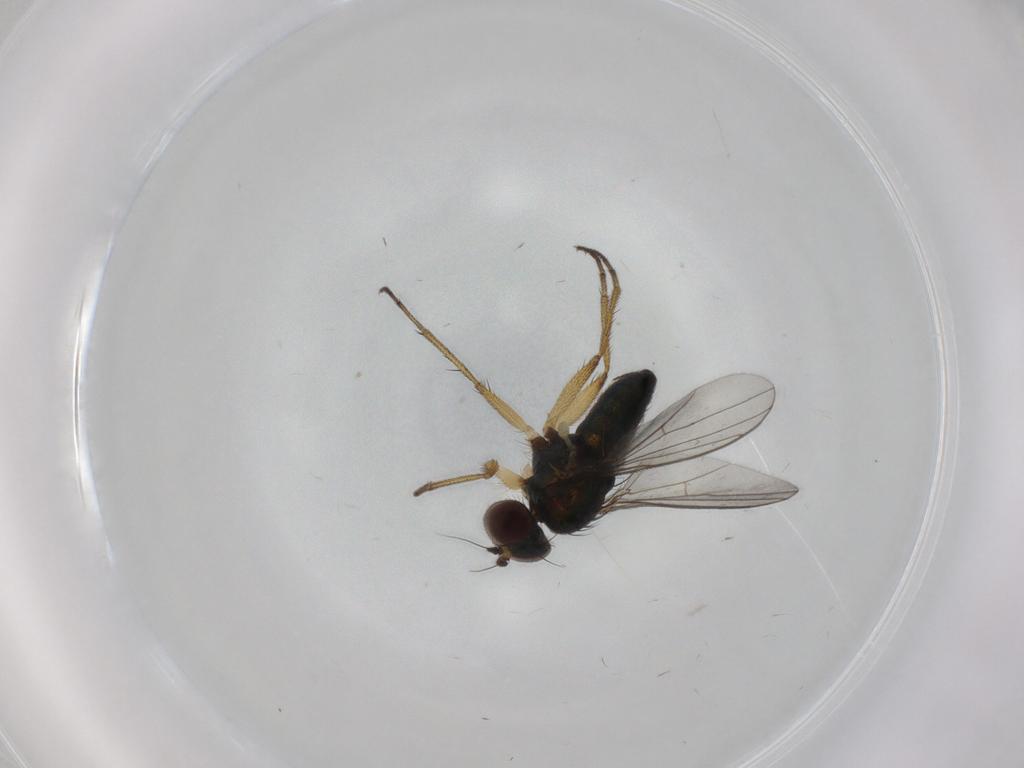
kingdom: Animalia
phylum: Arthropoda
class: Insecta
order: Diptera
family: Dolichopodidae
